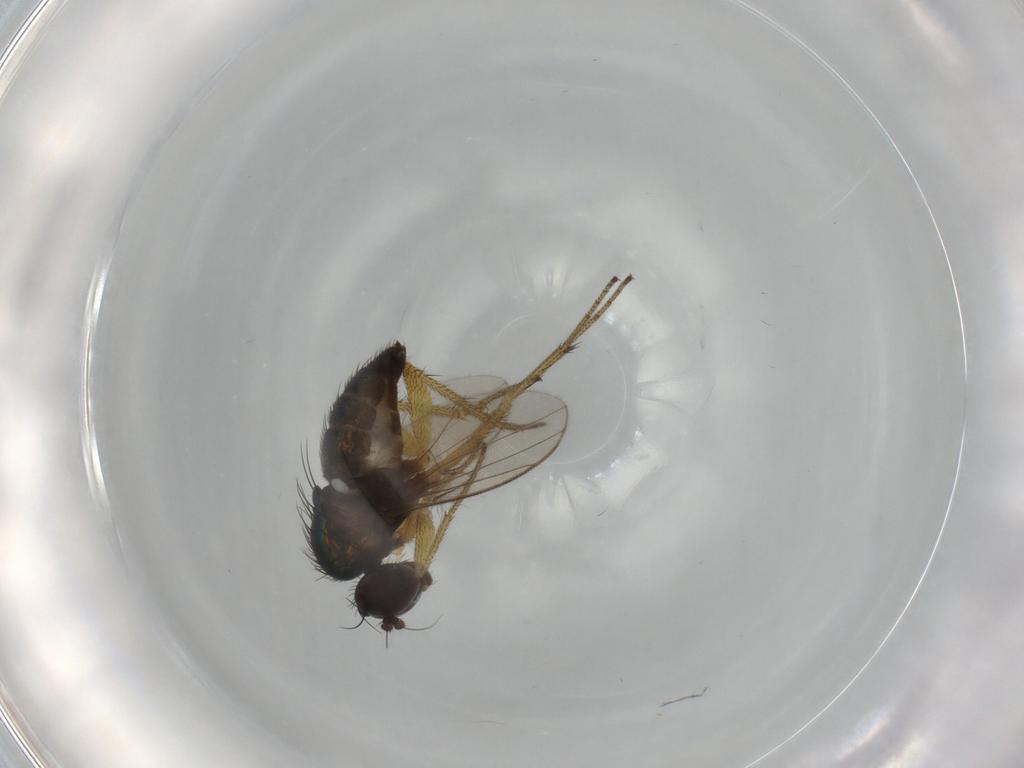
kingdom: Animalia
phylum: Arthropoda
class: Insecta
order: Diptera
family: Dolichopodidae
